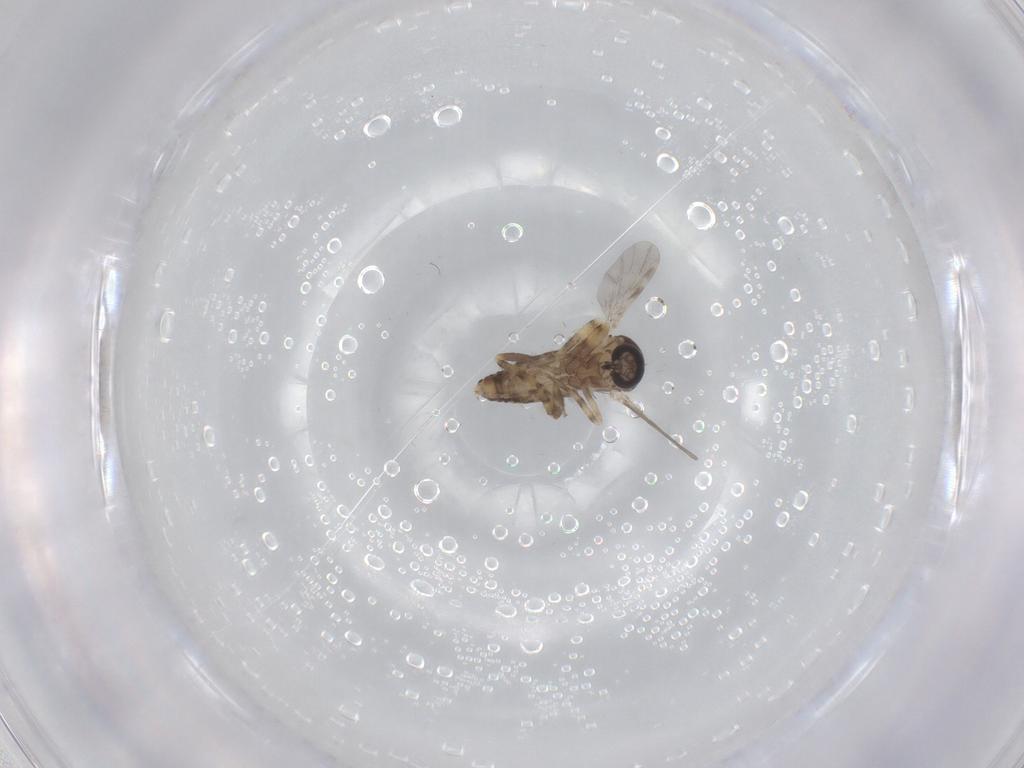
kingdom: Animalia
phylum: Arthropoda
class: Insecta
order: Diptera
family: Ceratopogonidae
